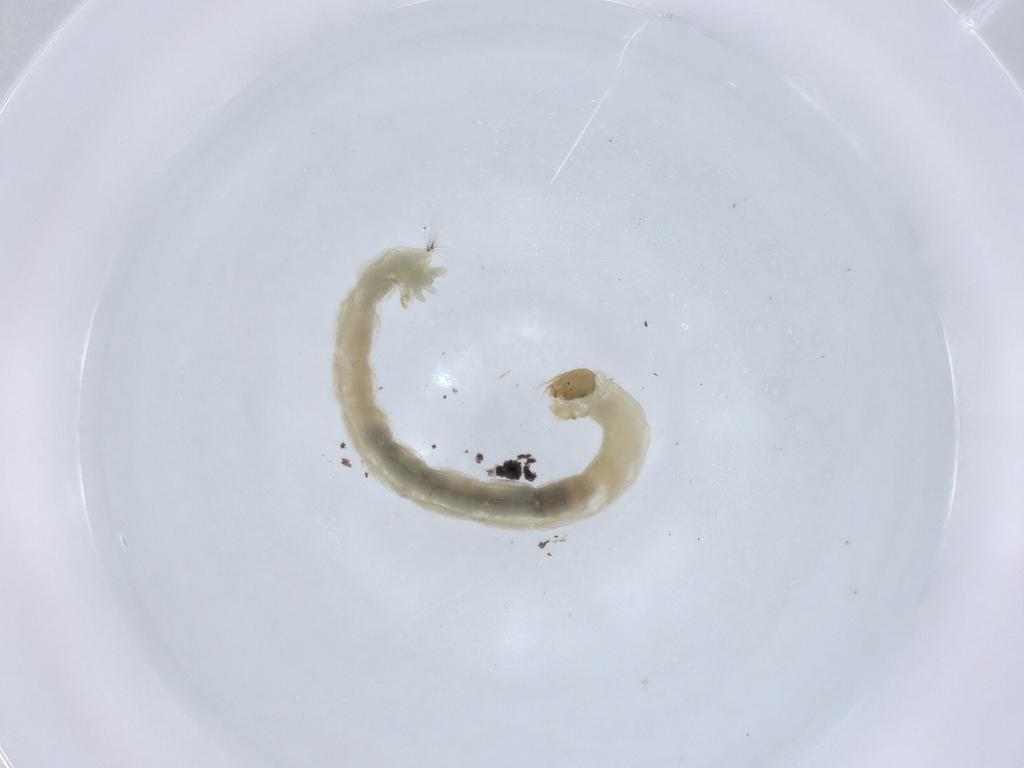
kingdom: Animalia
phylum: Arthropoda
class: Insecta
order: Diptera
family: Chironomidae
